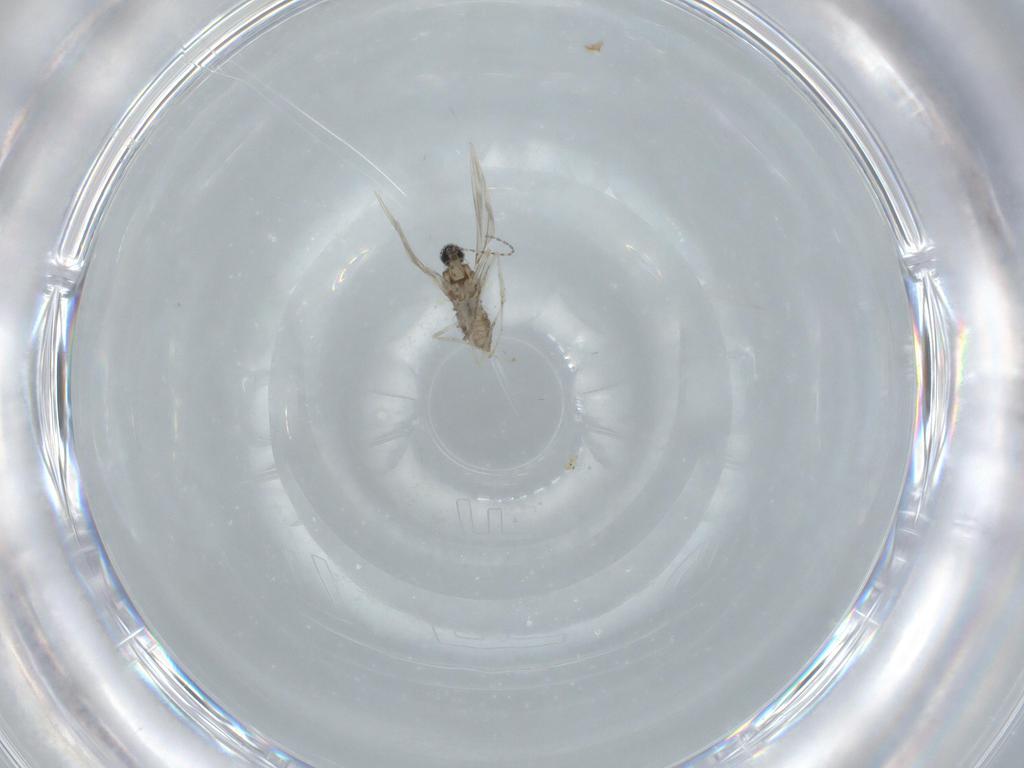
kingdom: Animalia
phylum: Arthropoda
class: Insecta
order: Diptera
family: Cecidomyiidae
